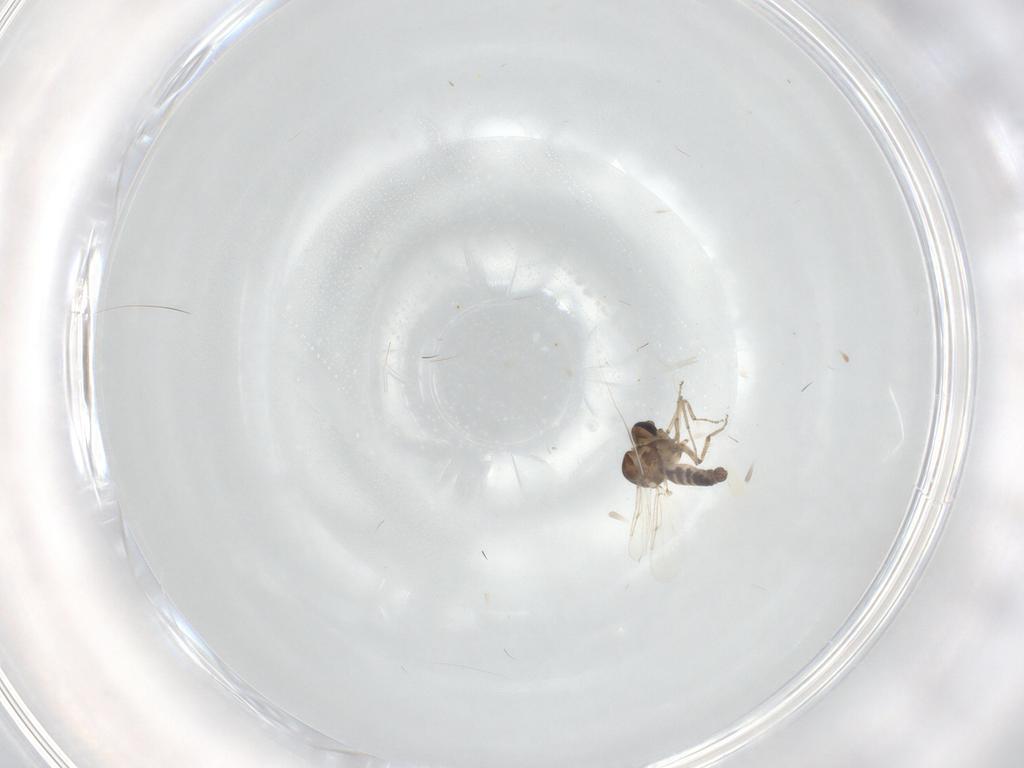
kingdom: Animalia
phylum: Arthropoda
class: Insecta
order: Diptera
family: Ceratopogonidae
